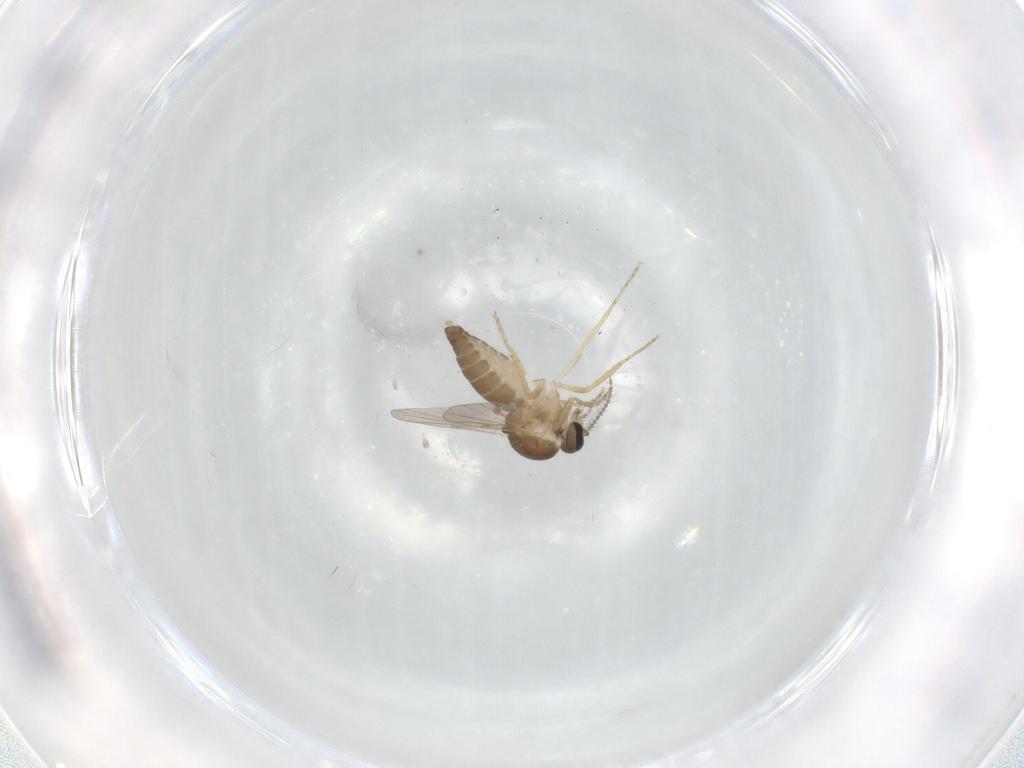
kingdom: Animalia
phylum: Arthropoda
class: Insecta
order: Diptera
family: Ceratopogonidae
